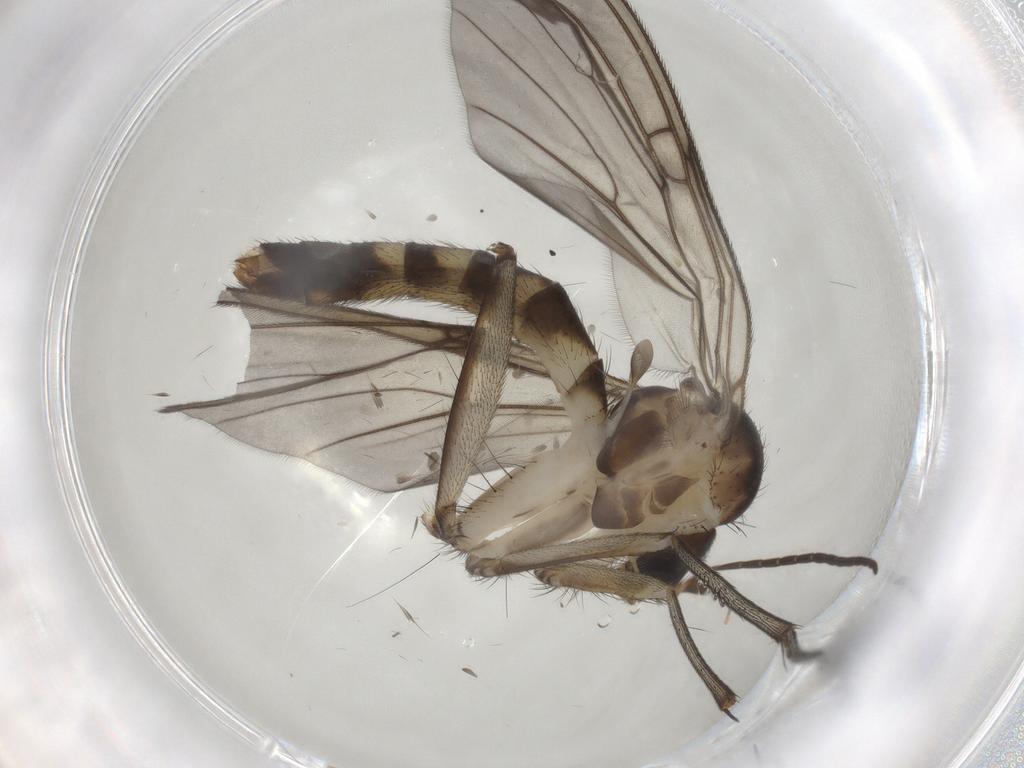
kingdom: Animalia
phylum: Arthropoda
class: Insecta
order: Diptera
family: Mycetophilidae
